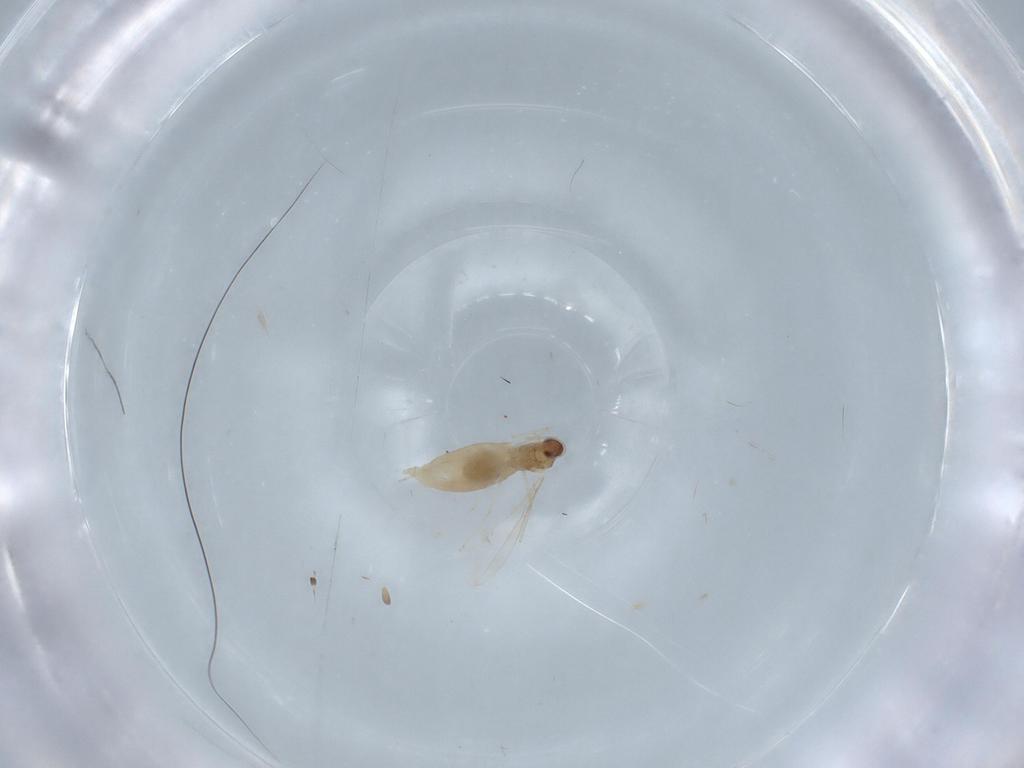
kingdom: Animalia
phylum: Arthropoda
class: Insecta
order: Diptera
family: Cecidomyiidae
